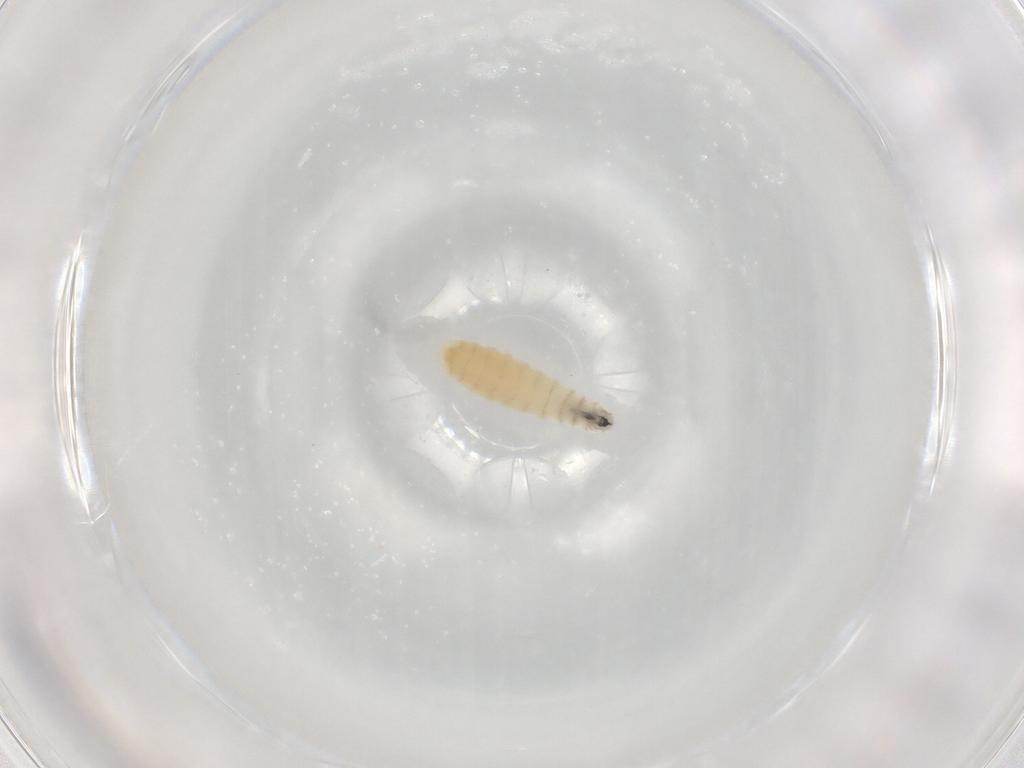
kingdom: Animalia
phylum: Arthropoda
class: Insecta
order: Diptera
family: Sarcophagidae
